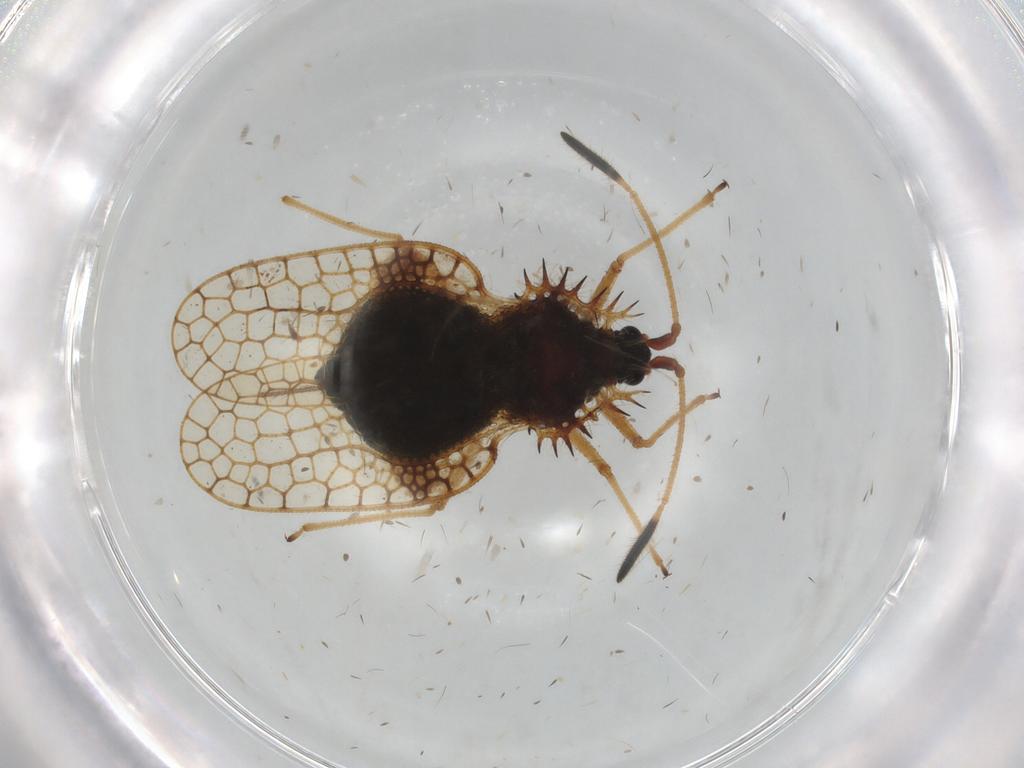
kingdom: Animalia
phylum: Arthropoda
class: Insecta
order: Hemiptera
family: Tingidae
